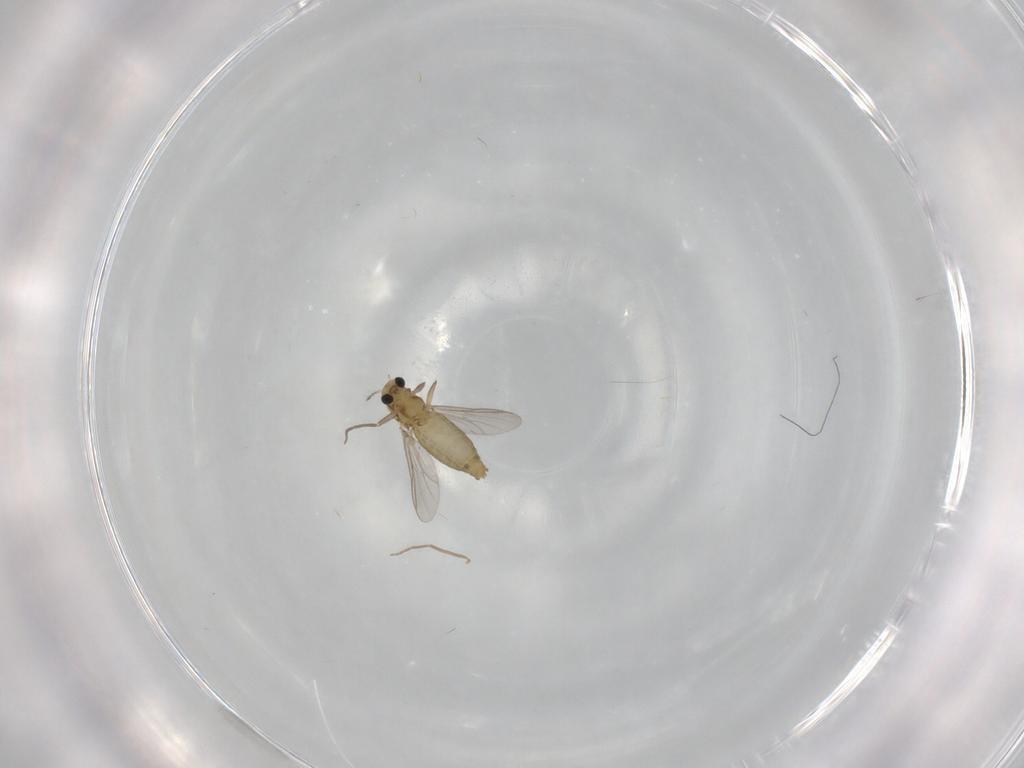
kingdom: Animalia
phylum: Arthropoda
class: Insecta
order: Diptera
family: Chironomidae
